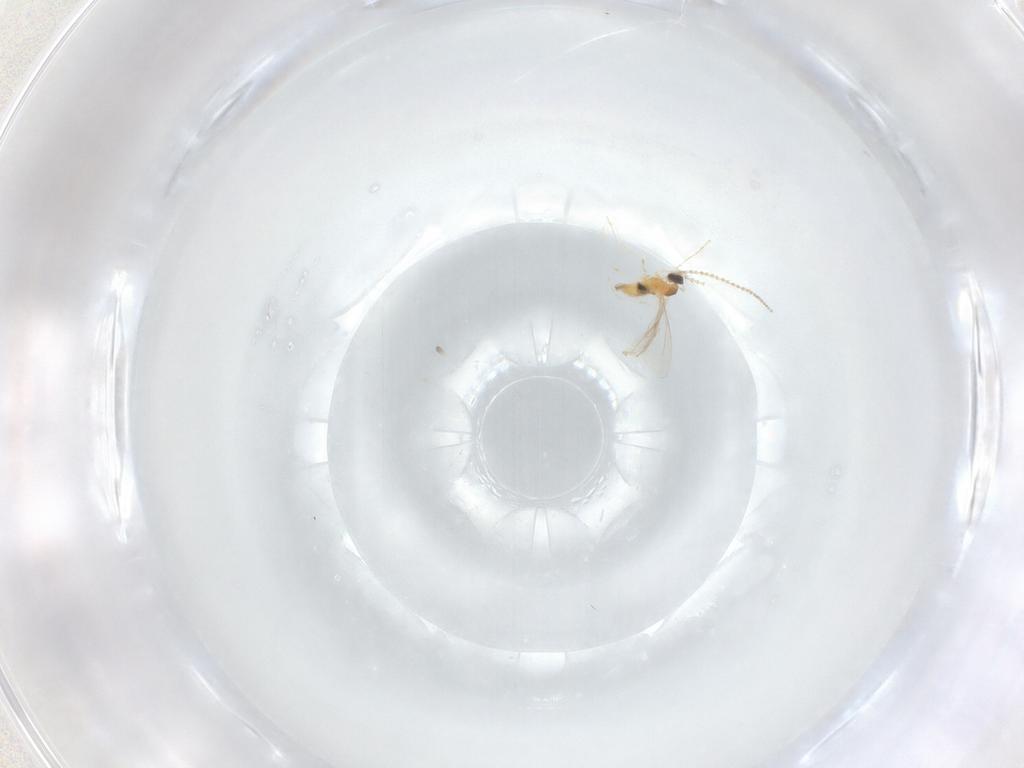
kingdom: Animalia
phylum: Arthropoda
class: Insecta
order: Diptera
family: Cecidomyiidae
